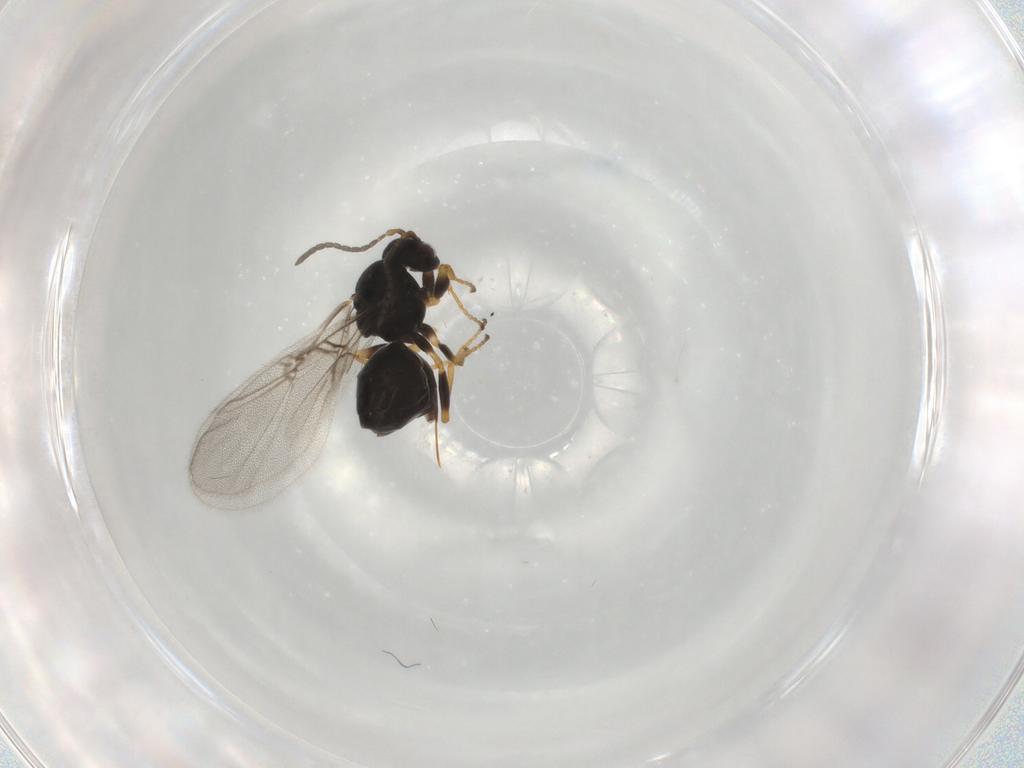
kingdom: Animalia
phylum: Arthropoda
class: Insecta
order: Hymenoptera
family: Cynipidae
